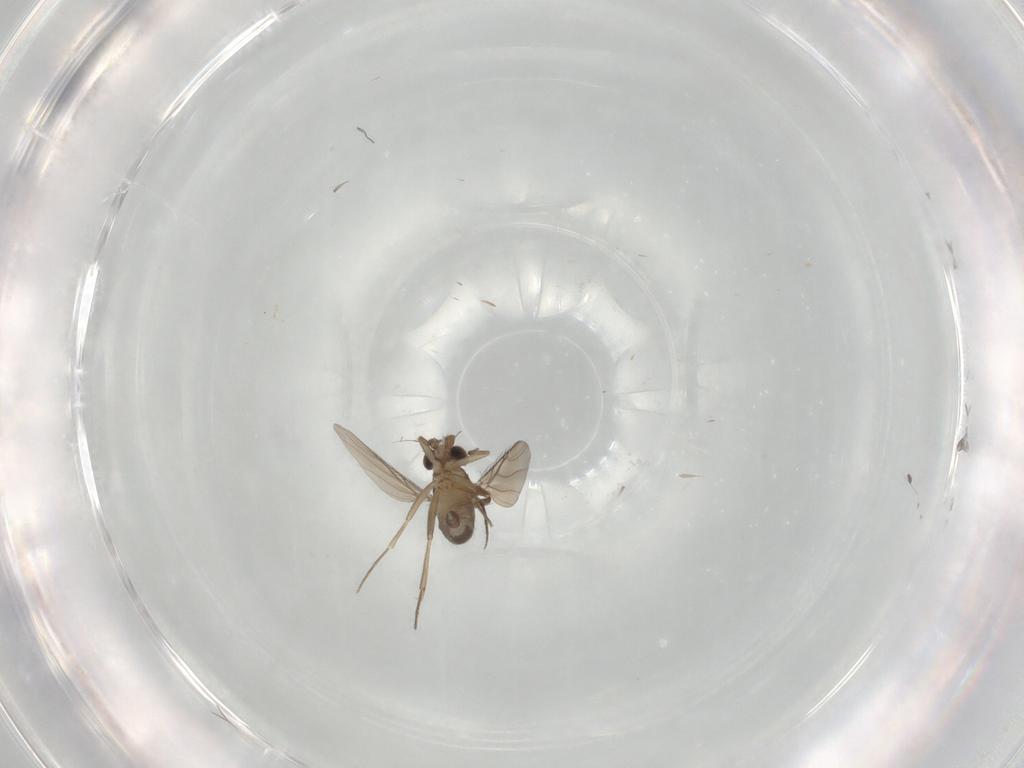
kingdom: Animalia
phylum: Arthropoda
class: Insecta
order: Diptera
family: Phoridae
